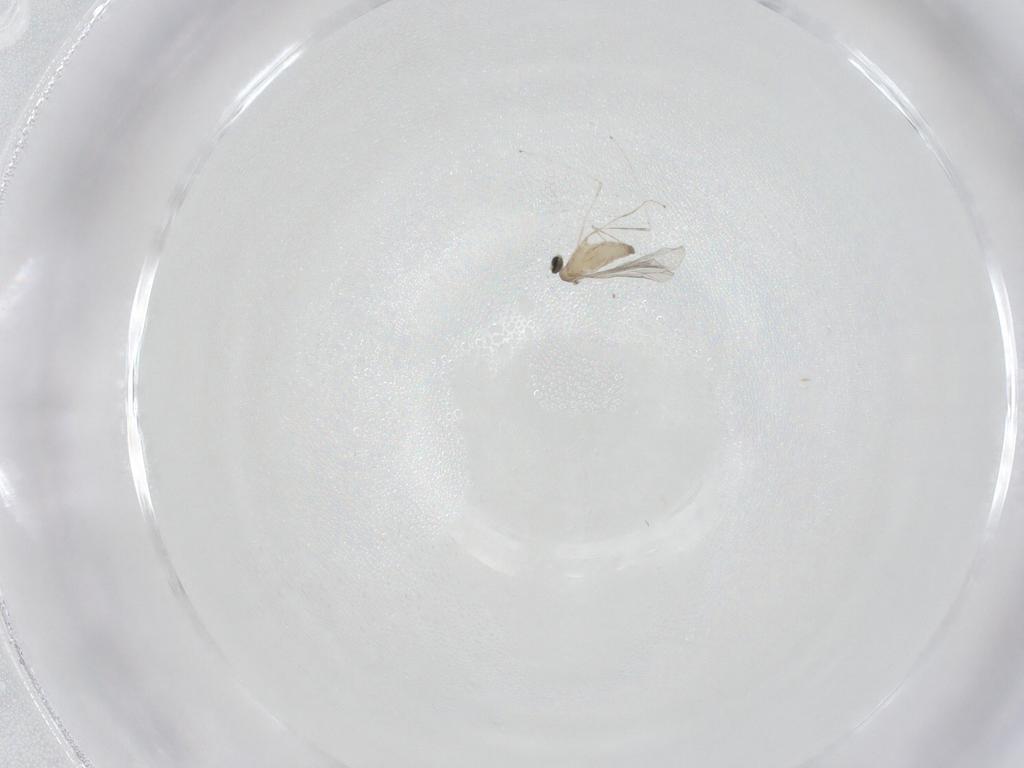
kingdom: Animalia
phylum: Arthropoda
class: Insecta
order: Diptera
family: Cecidomyiidae
